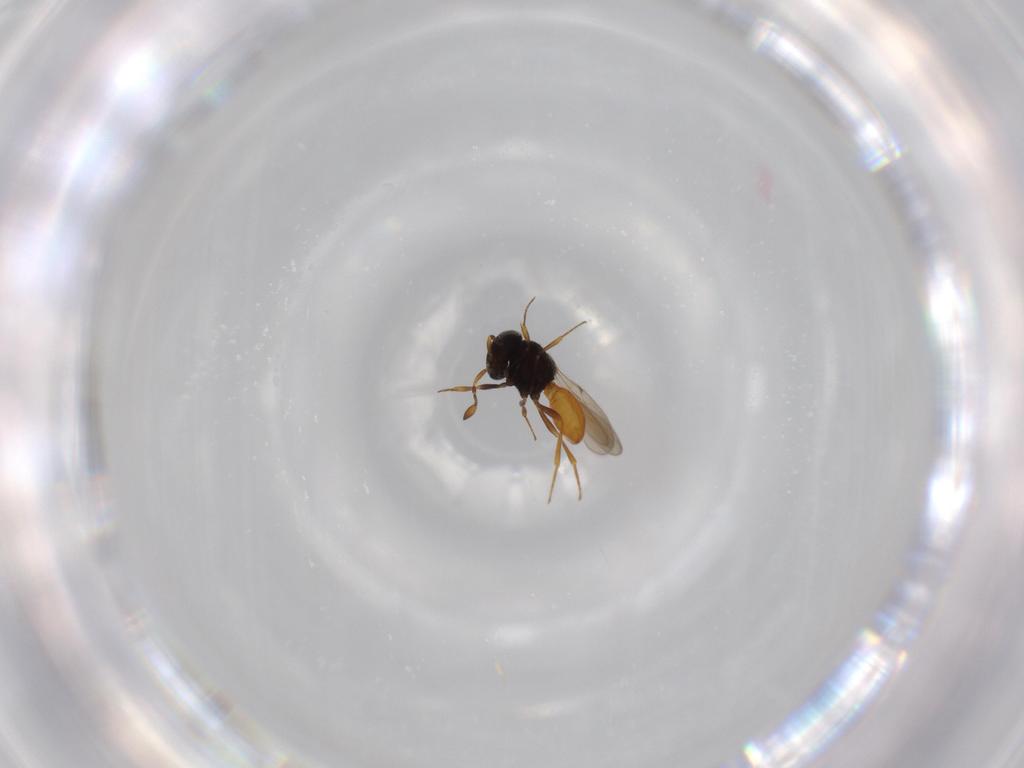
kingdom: Animalia
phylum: Arthropoda
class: Insecta
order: Hymenoptera
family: Scelionidae
